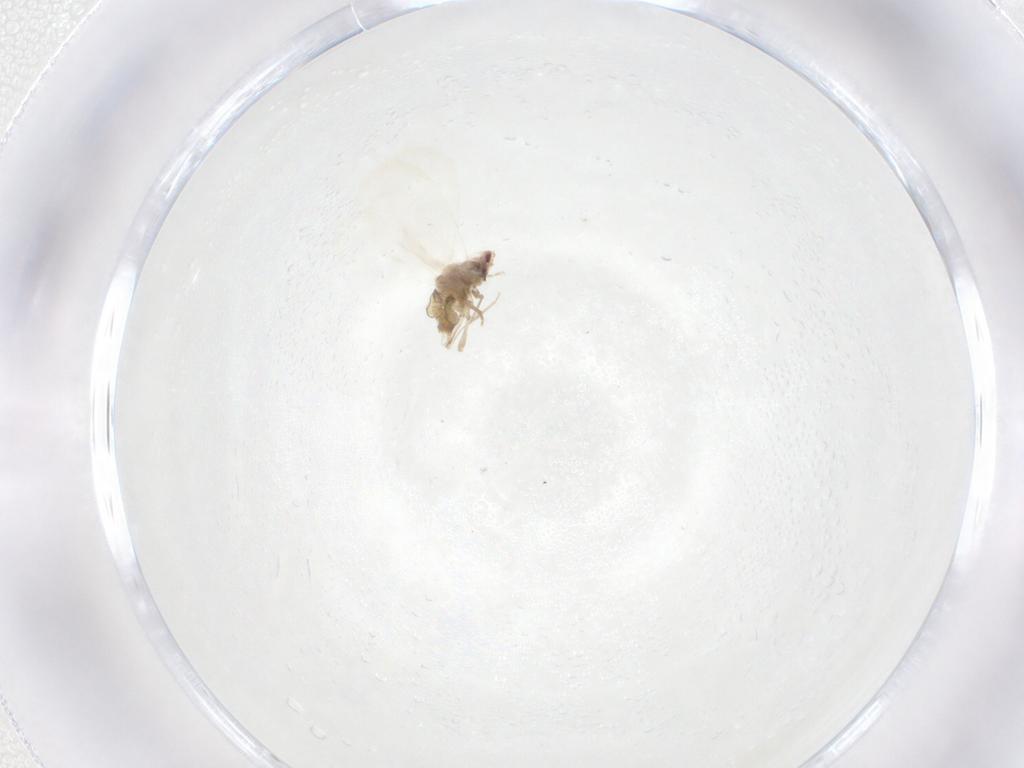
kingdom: Animalia
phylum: Arthropoda
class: Insecta
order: Hemiptera
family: Aleyrodidae
